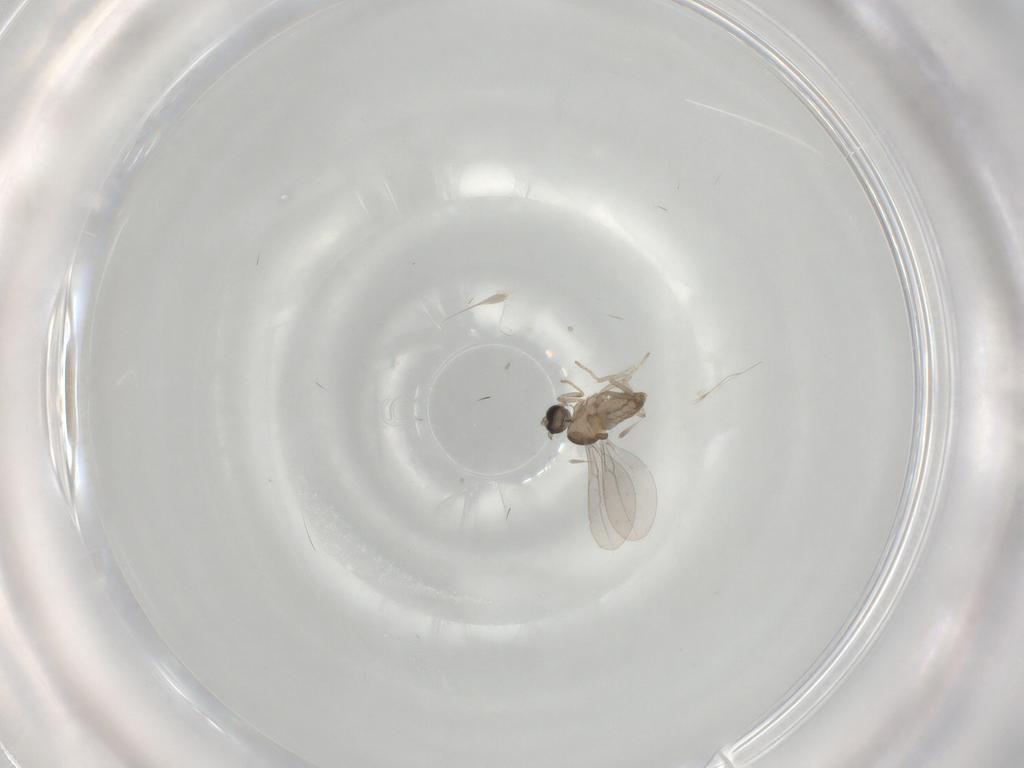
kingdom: Animalia
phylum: Arthropoda
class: Insecta
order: Diptera
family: Cecidomyiidae
